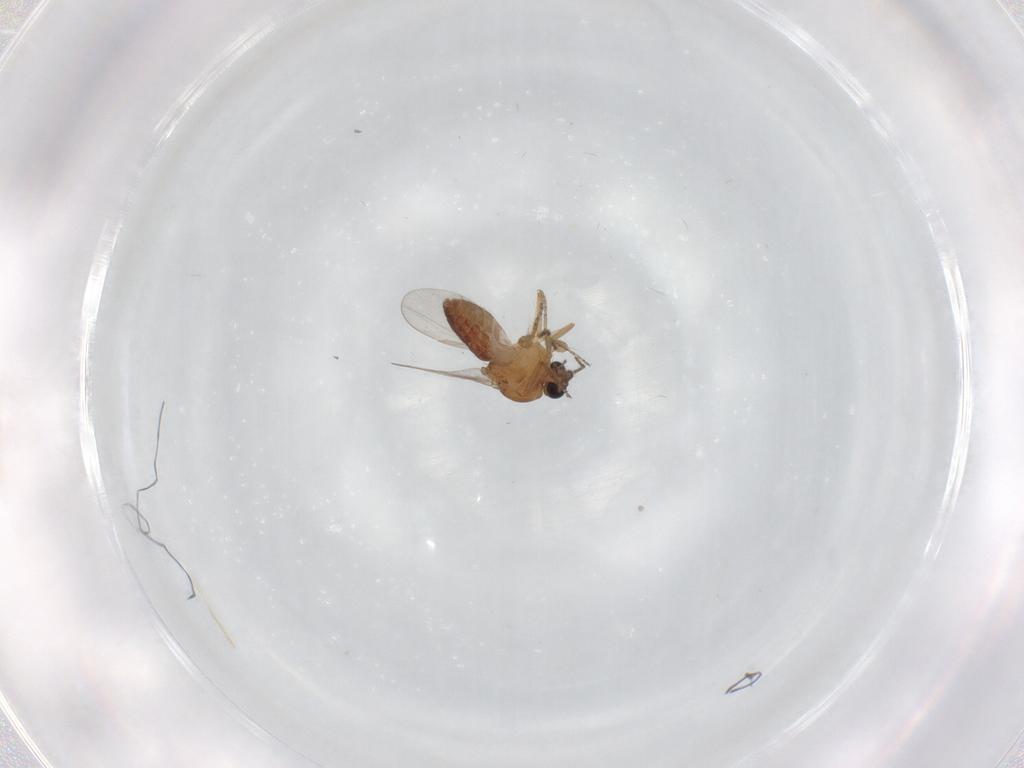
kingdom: Animalia
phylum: Arthropoda
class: Insecta
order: Diptera
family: Ceratopogonidae
